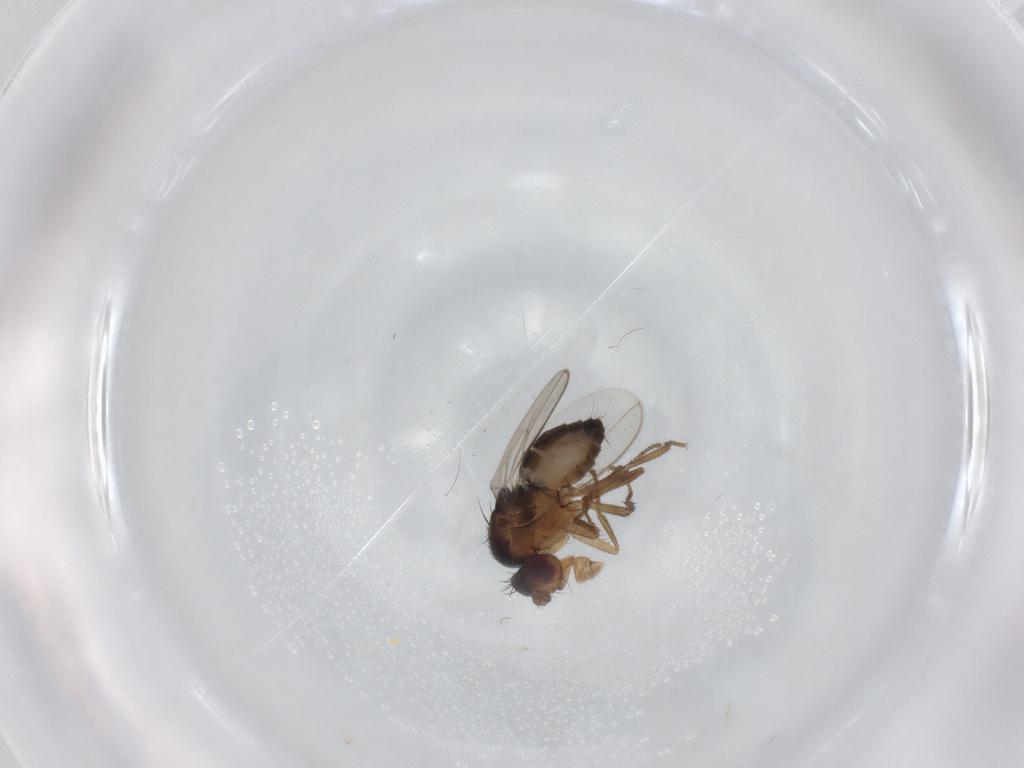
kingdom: Animalia
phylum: Arthropoda
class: Insecta
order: Diptera
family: Sphaeroceridae
